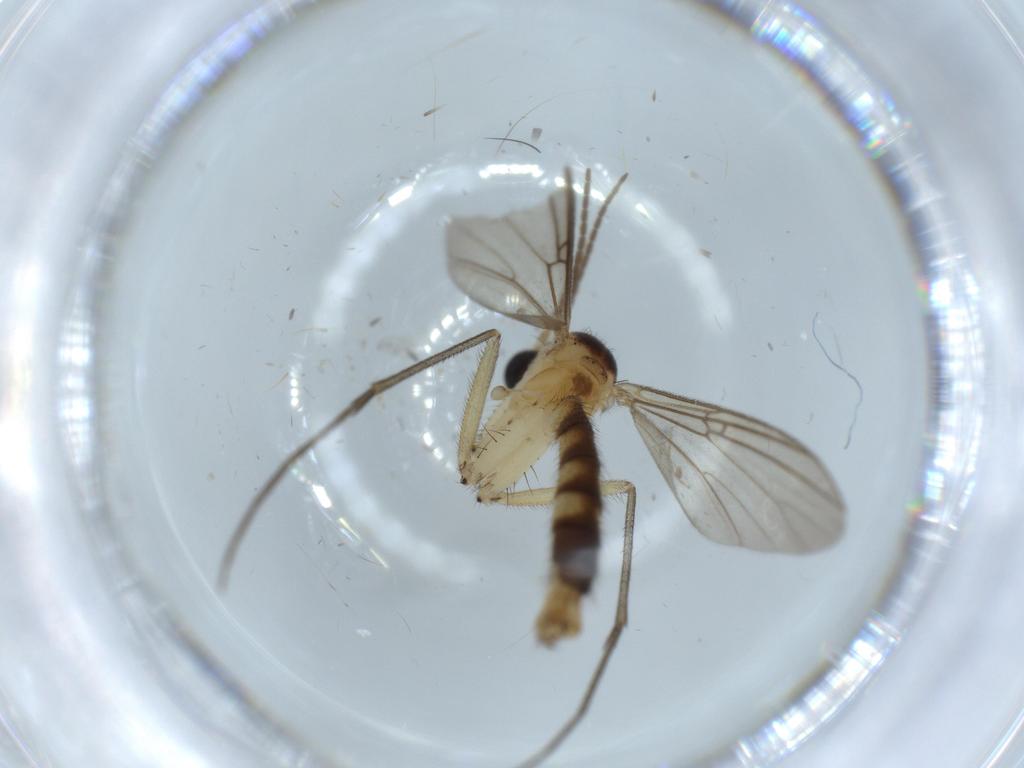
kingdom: Animalia
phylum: Arthropoda
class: Insecta
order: Diptera
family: Mycetophilidae
